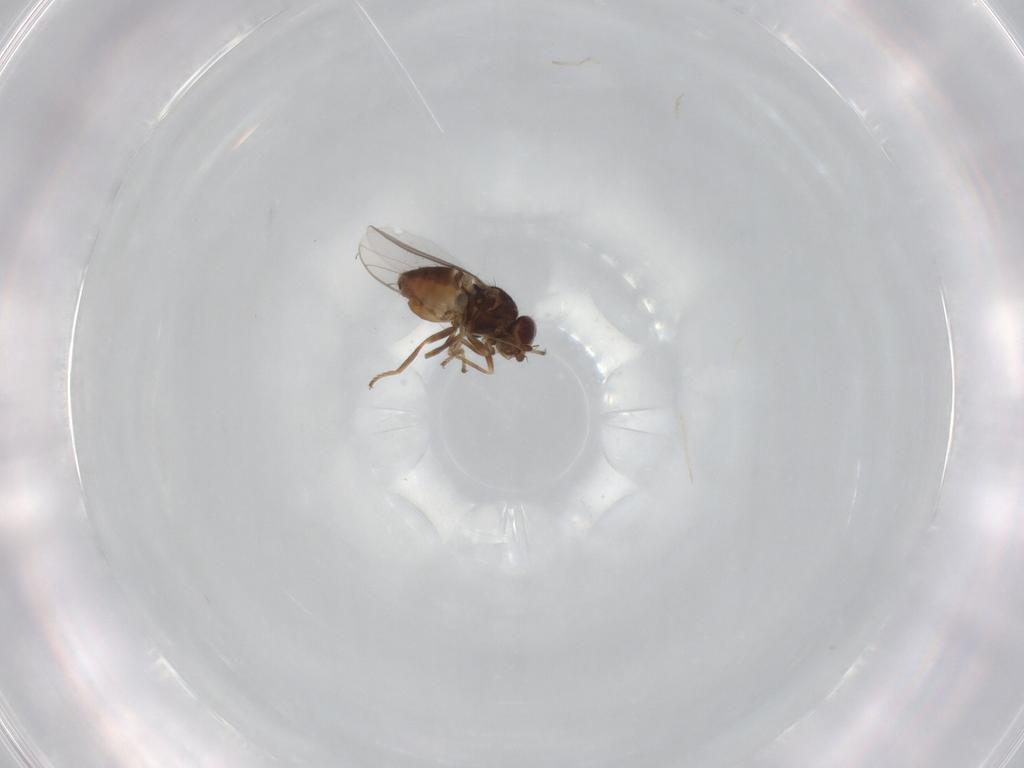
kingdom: Animalia
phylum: Arthropoda
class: Insecta
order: Diptera
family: Chloropidae
